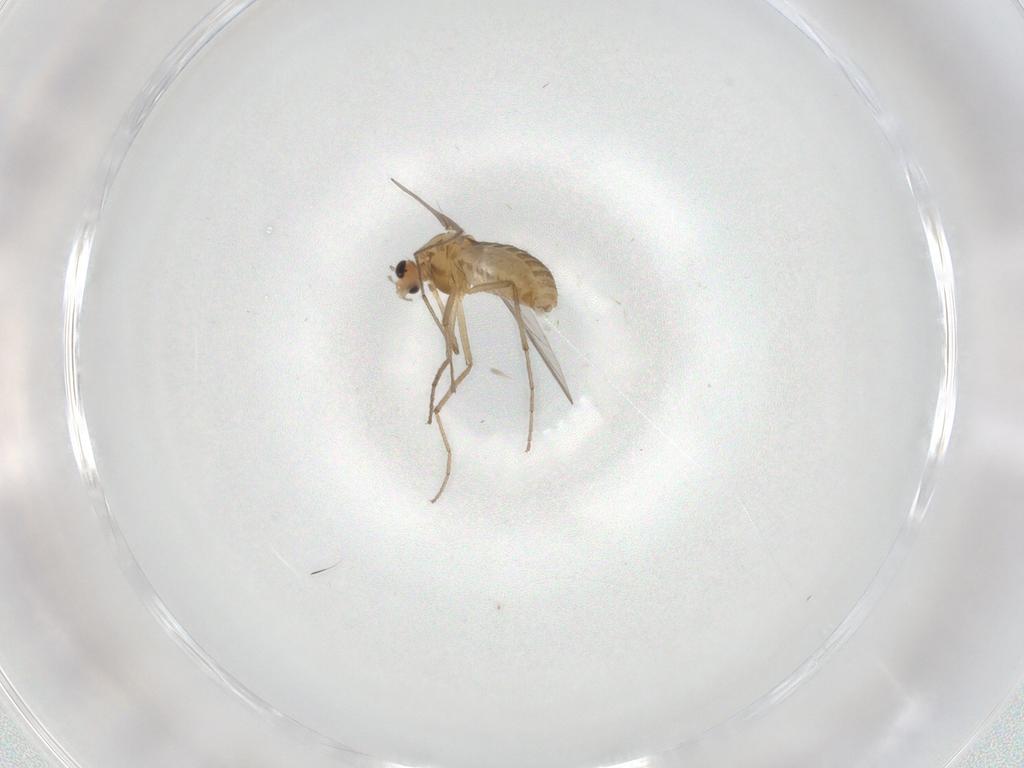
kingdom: Animalia
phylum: Arthropoda
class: Insecta
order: Diptera
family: Chironomidae
